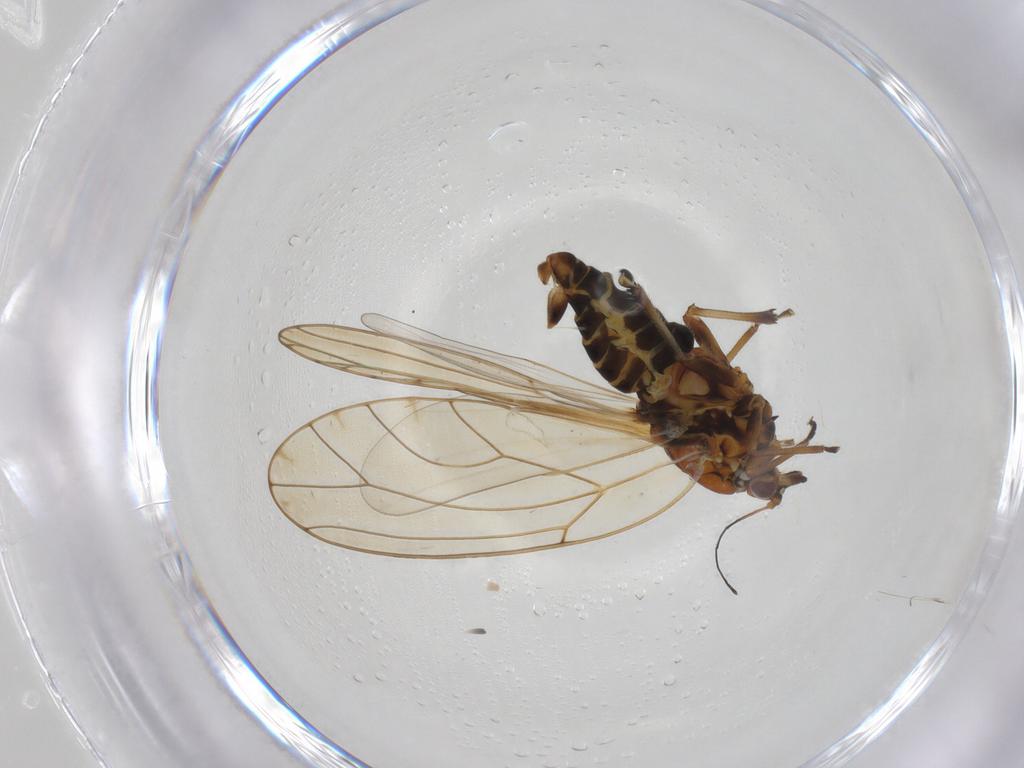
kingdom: Animalia
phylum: Arthropoda
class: Insecta
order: Hemiptera
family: Triozidae
